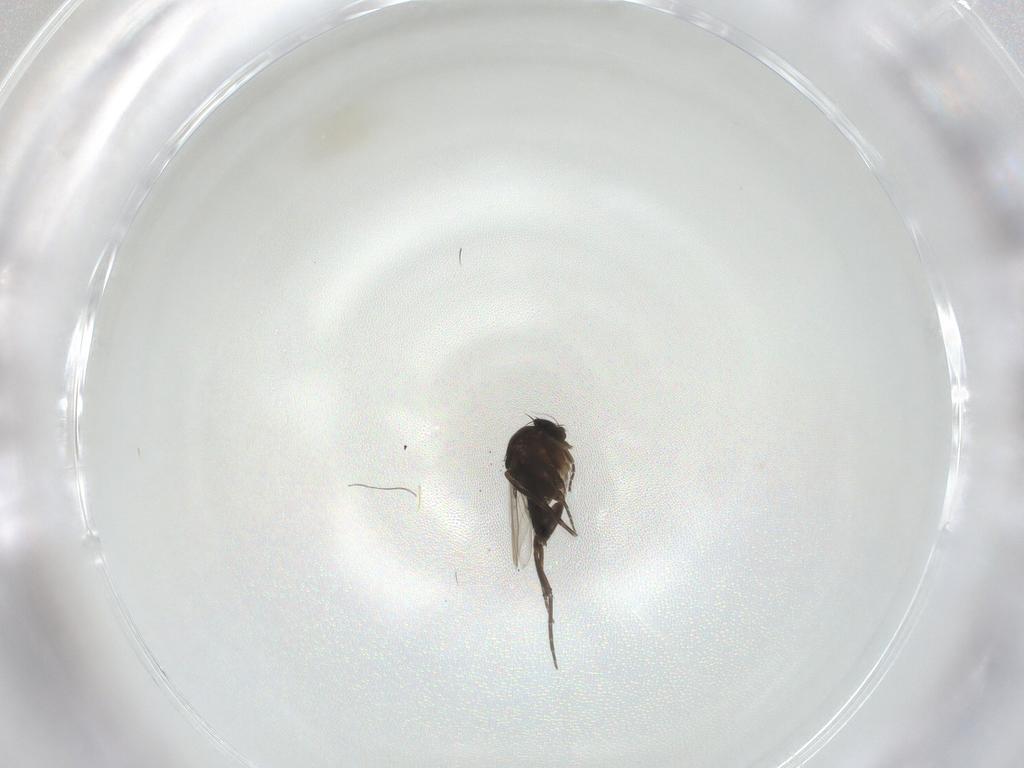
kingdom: Animalia
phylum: Arthropoda
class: Insecta
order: Diptera
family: Phoridae
